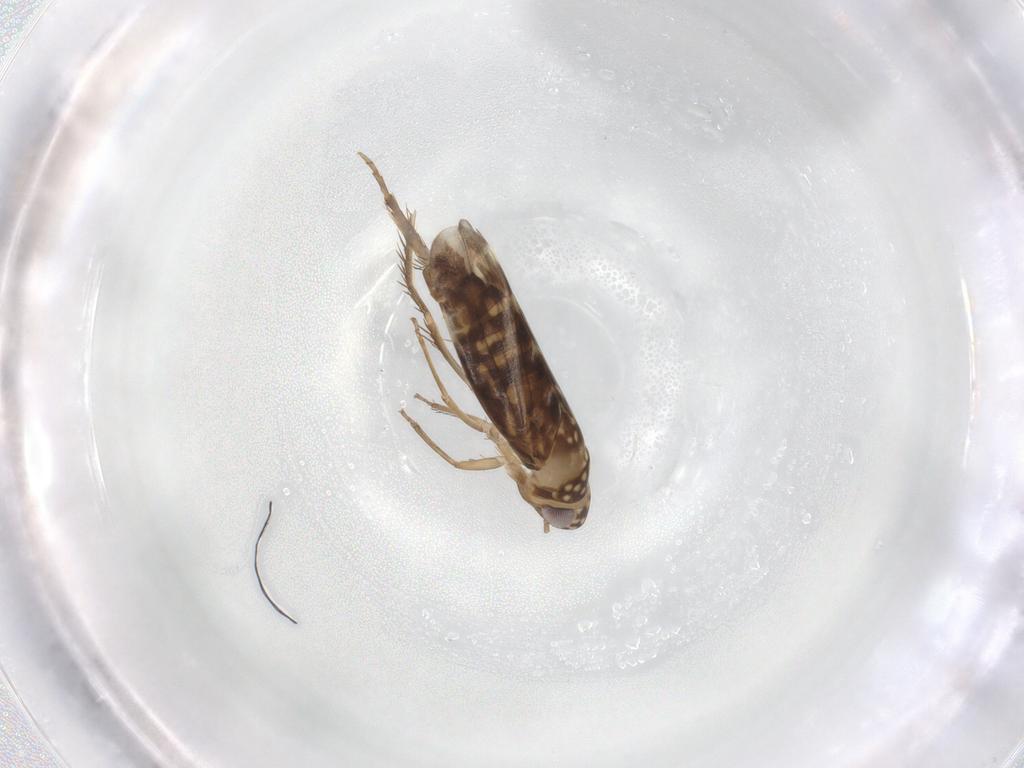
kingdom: Animalia
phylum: Arthropoda
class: Insecta
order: Hemiptera
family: Cicadellidae
